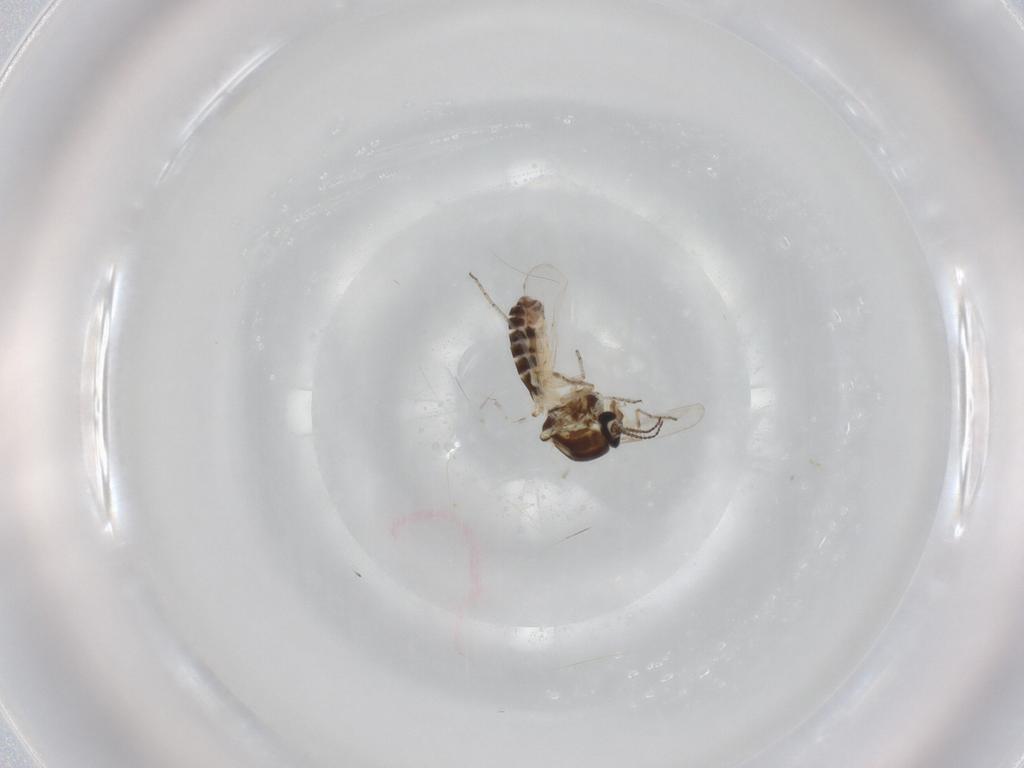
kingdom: Animalia
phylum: Arthropoda
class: Insecta
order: Diptera
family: Ceratopogonidae
